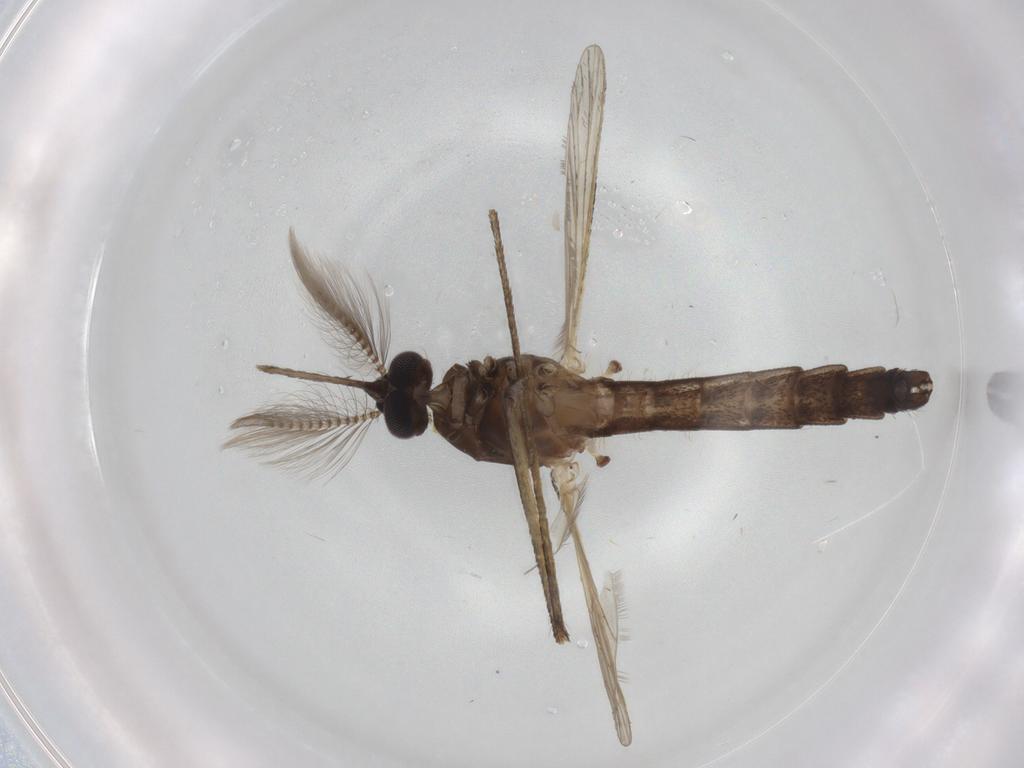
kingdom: Animalia
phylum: Arthropoda
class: Insecta
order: Diptera
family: Agromyzidae
